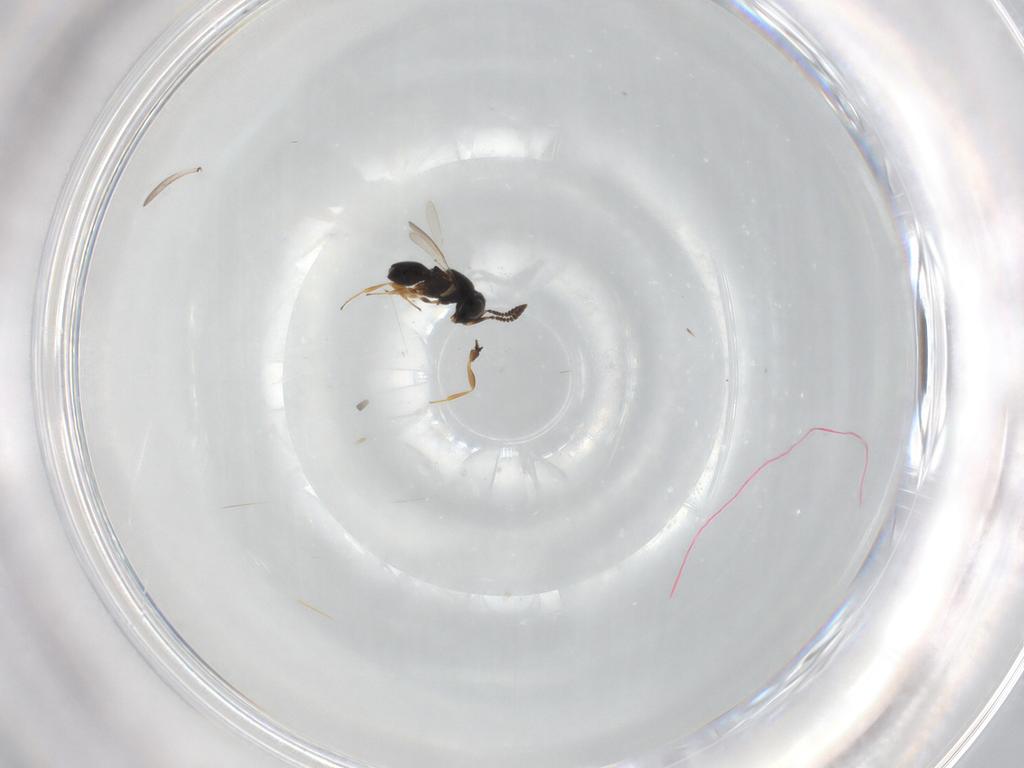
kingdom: Animalia
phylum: Arthropoda
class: Insecta
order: Hymenoptera
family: Scelionidae
